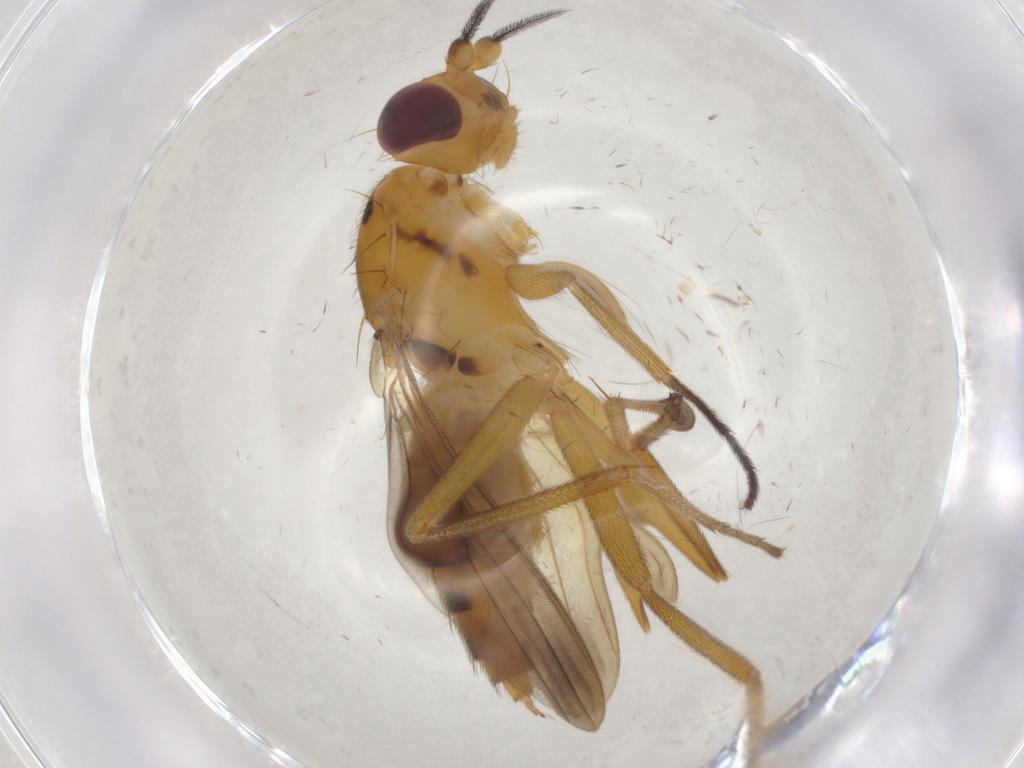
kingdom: Animalia
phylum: Arthropoda
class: Insecta
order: Diptera
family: Clusiidae
